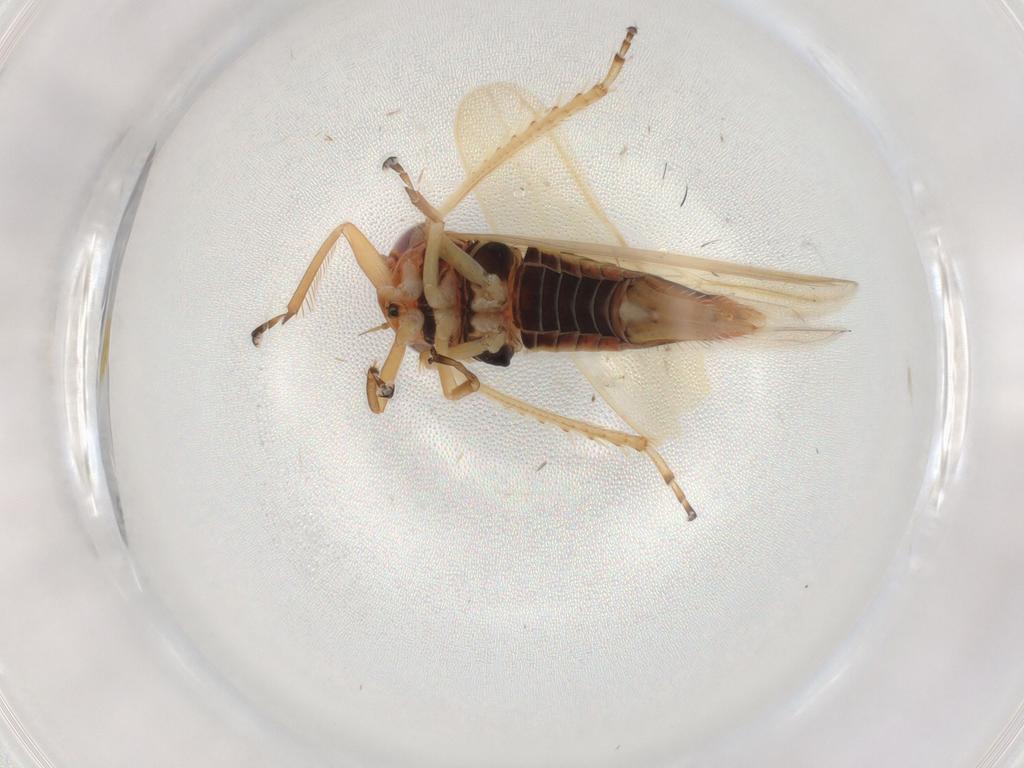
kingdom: Animalia
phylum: Arthropoda
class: Insecta
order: Hemiptera
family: Cicadellidae
